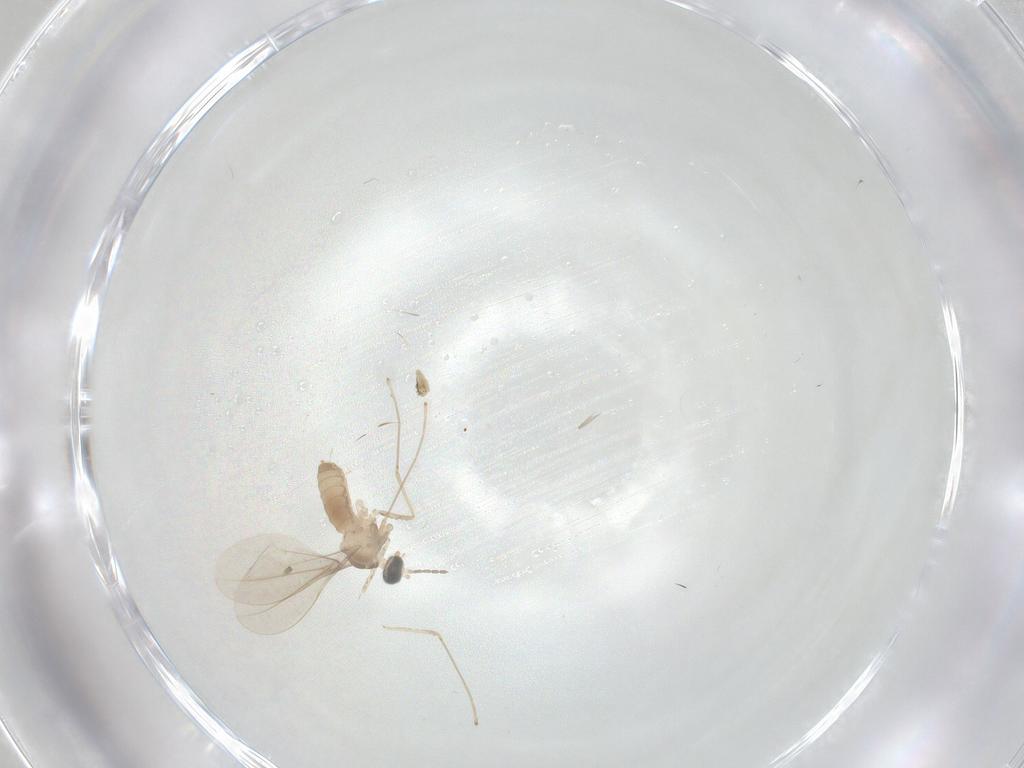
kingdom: Animalia
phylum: Arthropoda
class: Insecta
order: Diptera
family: Cecidomyiidae
